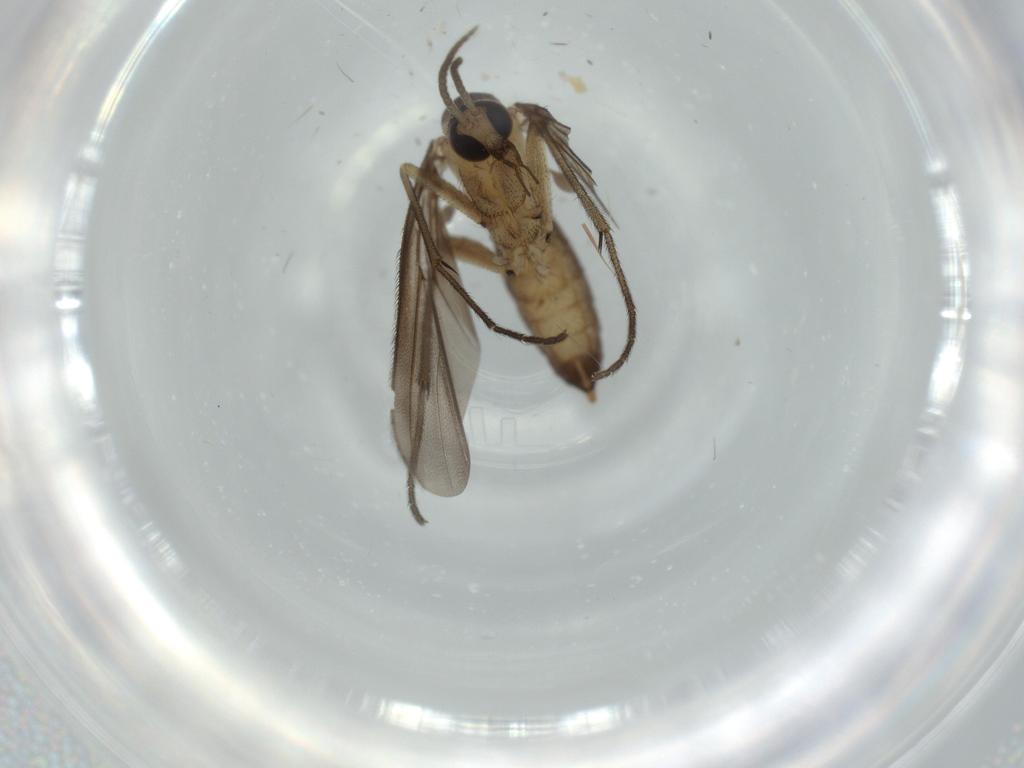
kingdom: Animalia
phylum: Arthropoda
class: Insecta
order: Diptera
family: Diadocidiidae
